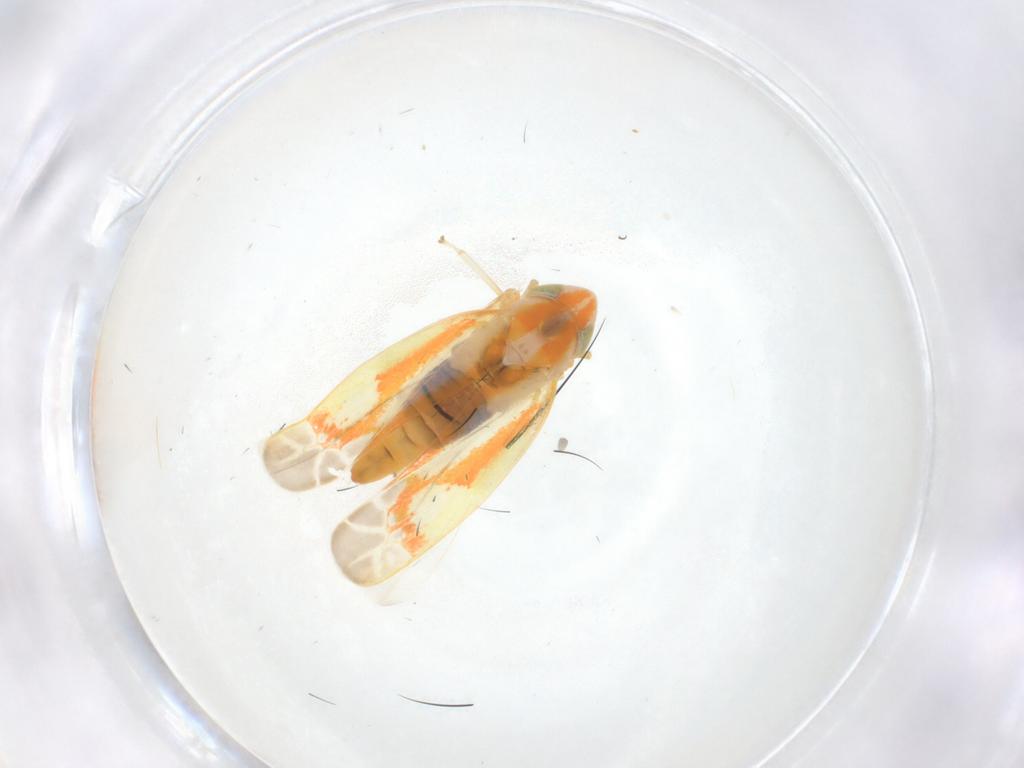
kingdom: Animalia
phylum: Arthropoda
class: Insecta
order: Hemiptera
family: Cicadellidae
